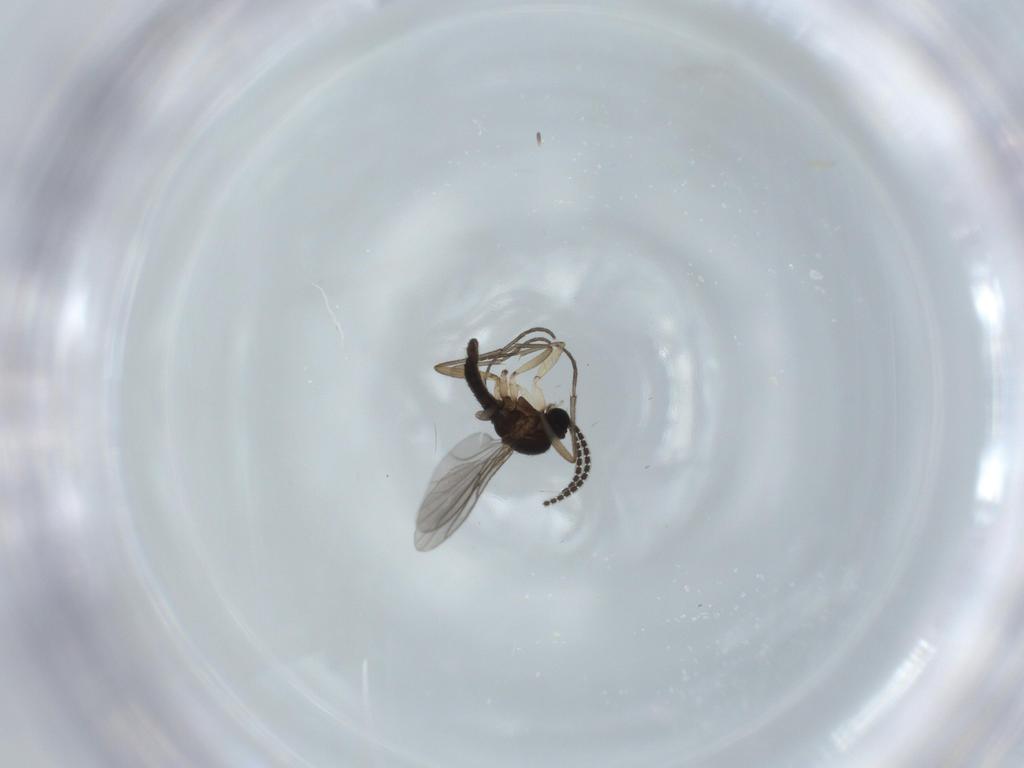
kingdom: Animalia
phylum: Arthropoda
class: Insecta
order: Diptera
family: Sciaridae
